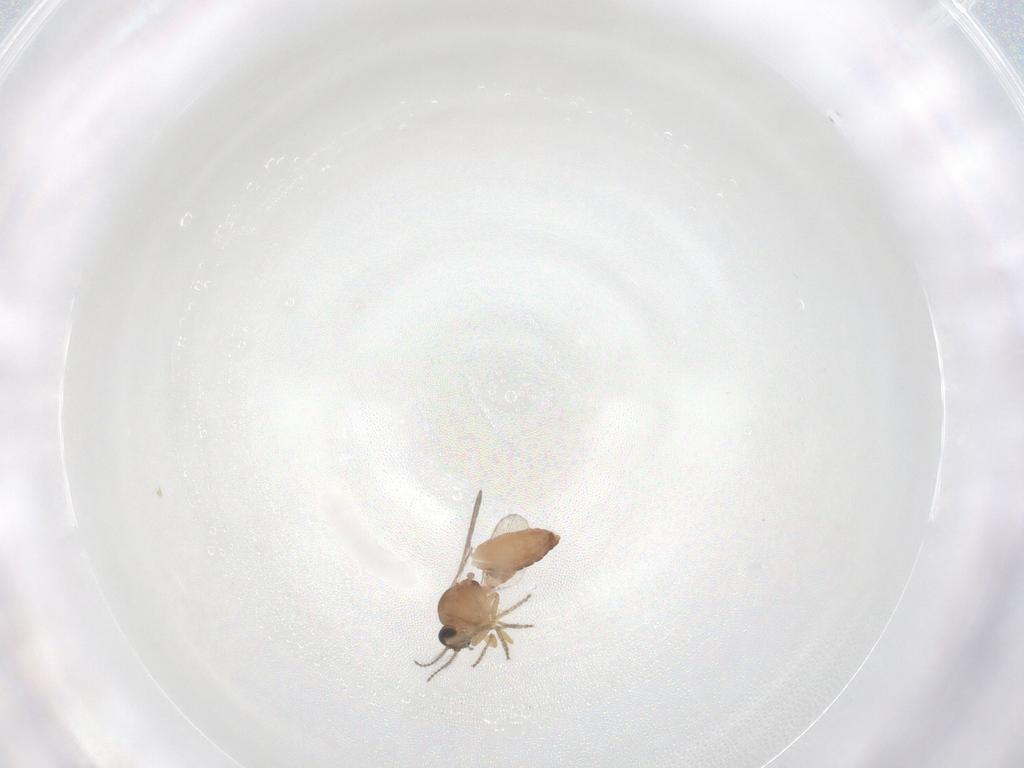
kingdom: Animalia
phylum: Arthropoda
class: Insecta
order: Diptera
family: Ceratopogonidae
